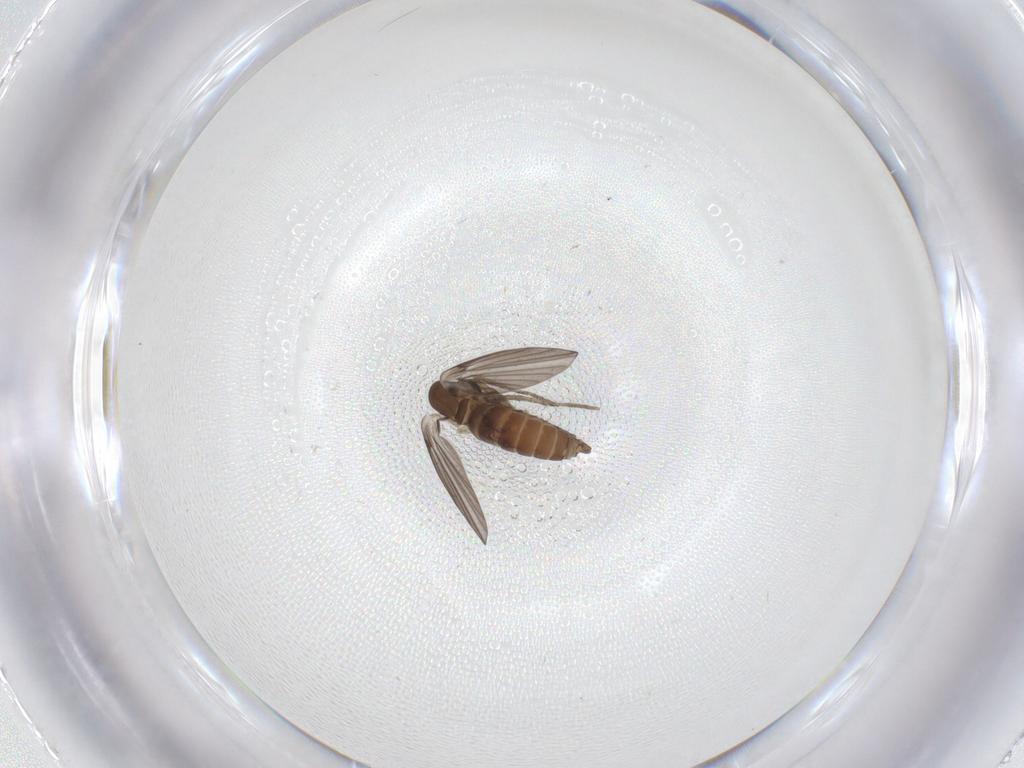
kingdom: Animalia
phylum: Arthropoda
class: Insecta
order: Diptera
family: Psychodidae
